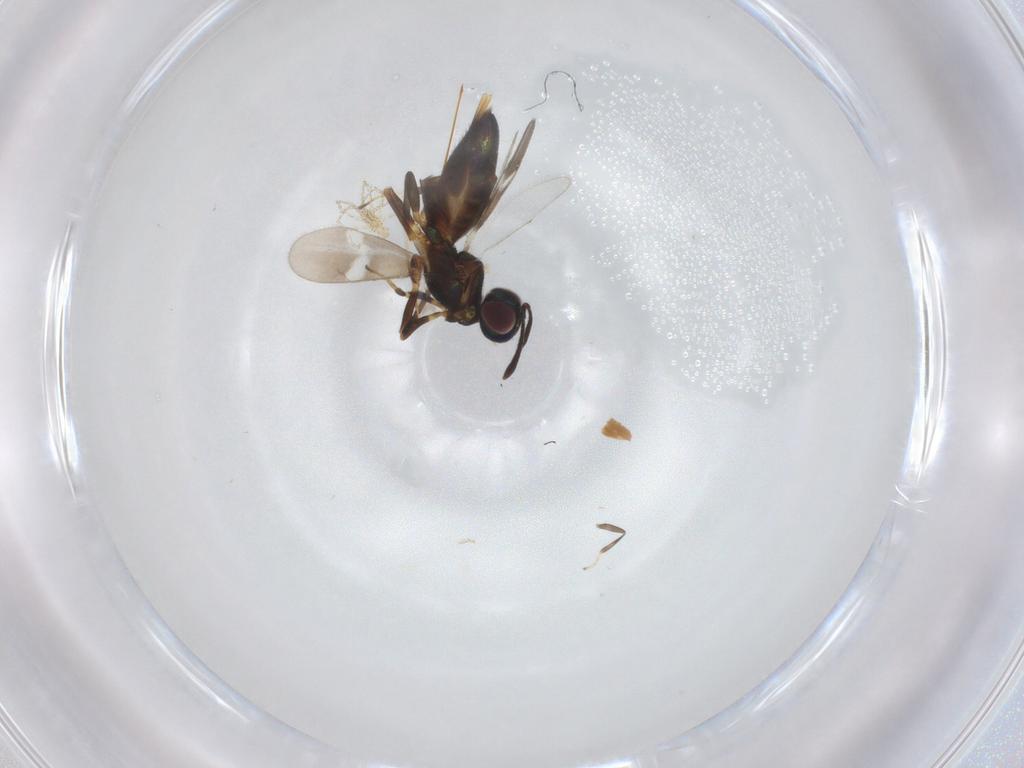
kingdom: Animalia
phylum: Arthropoda
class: Insecta
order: Hymenoptera
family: Eupelmidae
